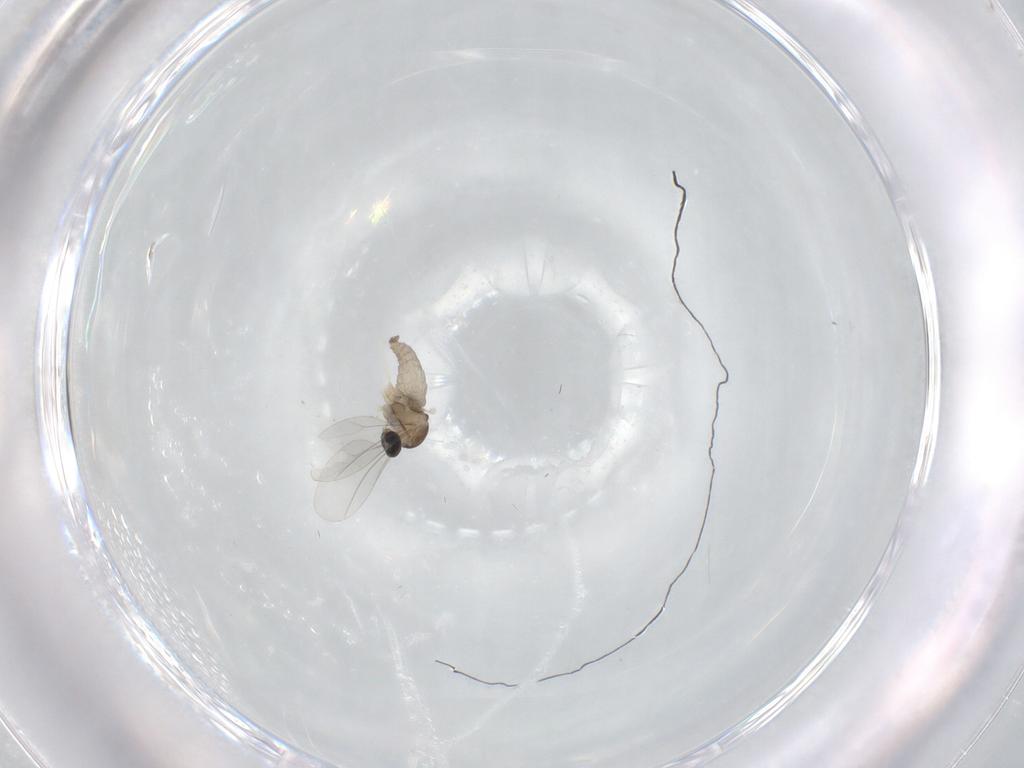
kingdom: Animalia
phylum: Arthropoda
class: Insecta
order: Diptera
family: Cecidomyiidae
